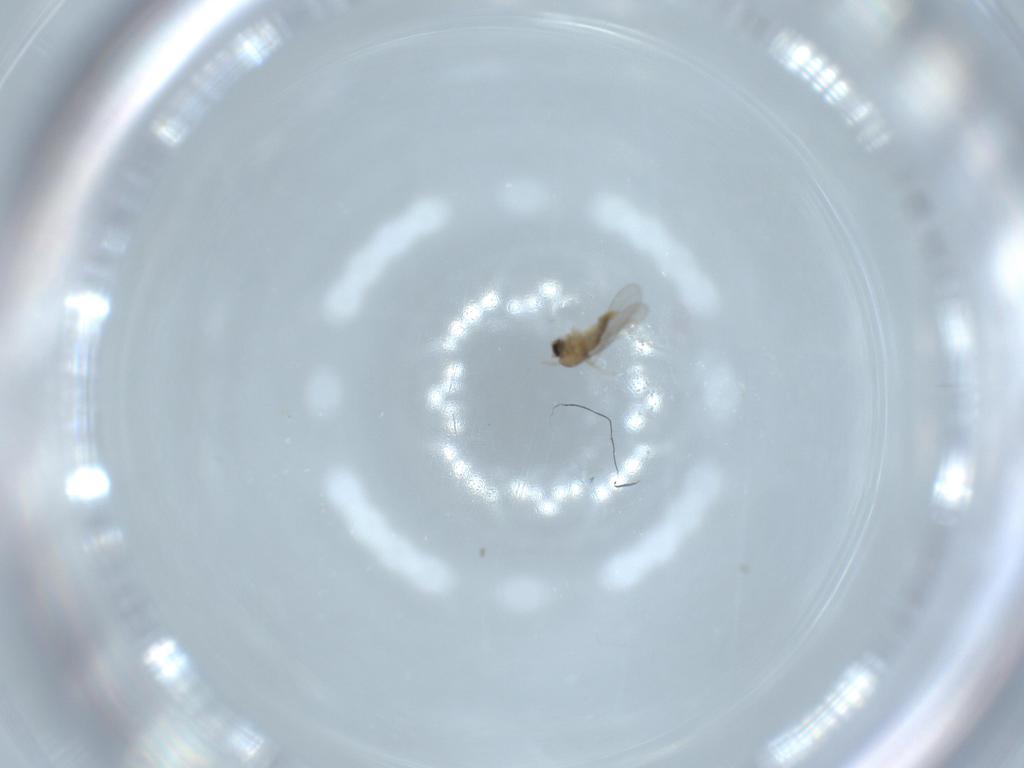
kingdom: Animalia
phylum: Arthropoda
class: Insecta
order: Diptera
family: Cecidomyiidae
